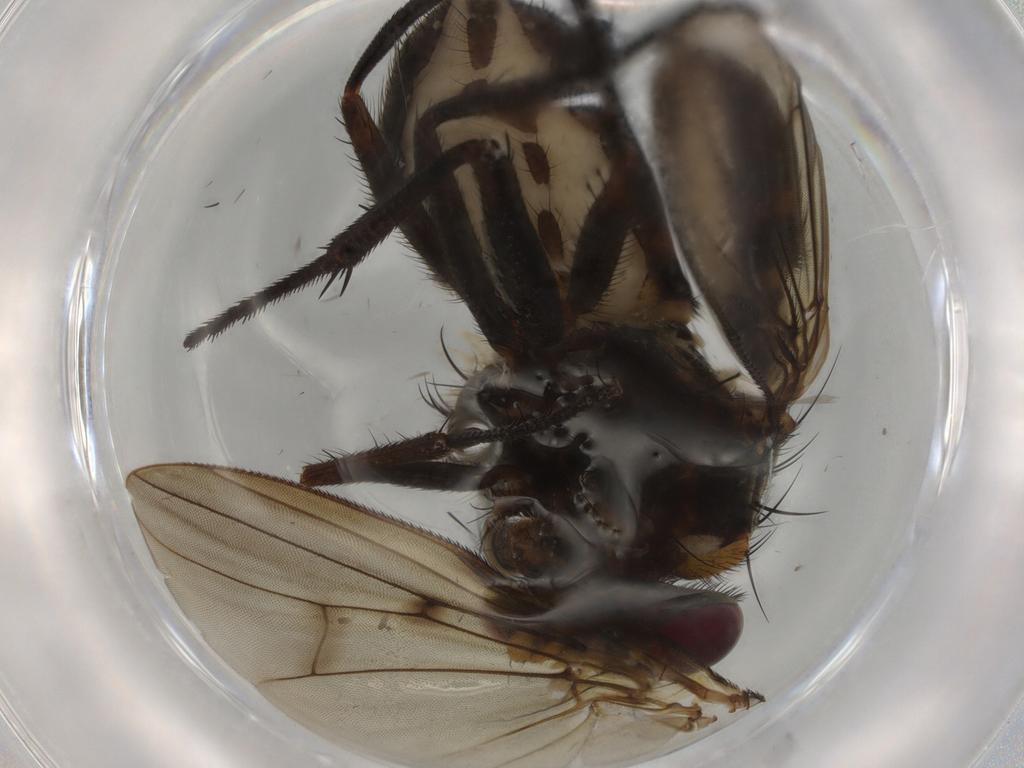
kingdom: Animalia
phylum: Arthropoda
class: Insecta
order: Diptera
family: Muscidae
